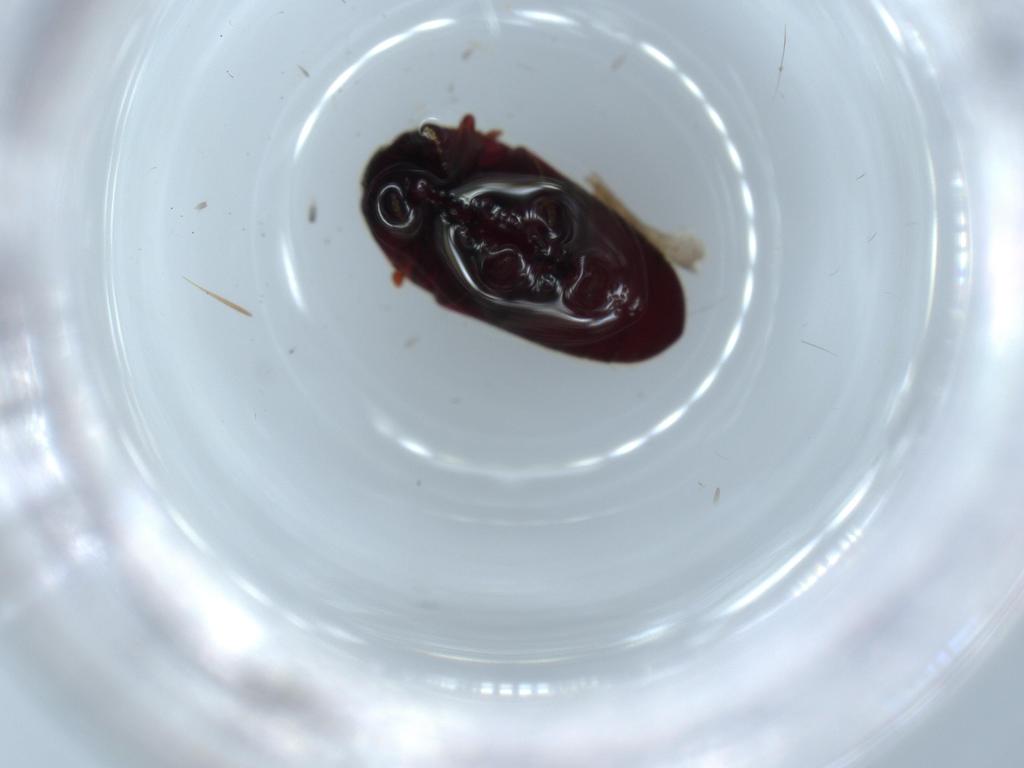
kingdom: Animalia
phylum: Arthropoda
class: Insecta
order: Coleoptera
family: Throscidae
